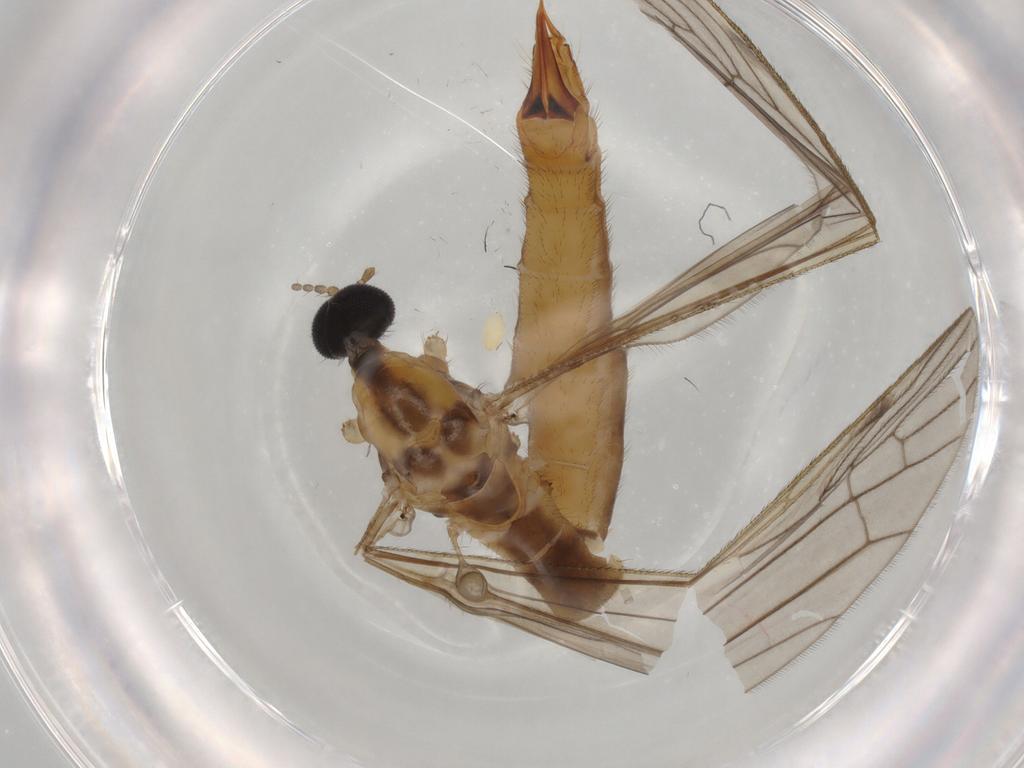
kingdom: Animalia
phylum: Arthropoda
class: Insecta
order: Diptera
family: Limoniidae
